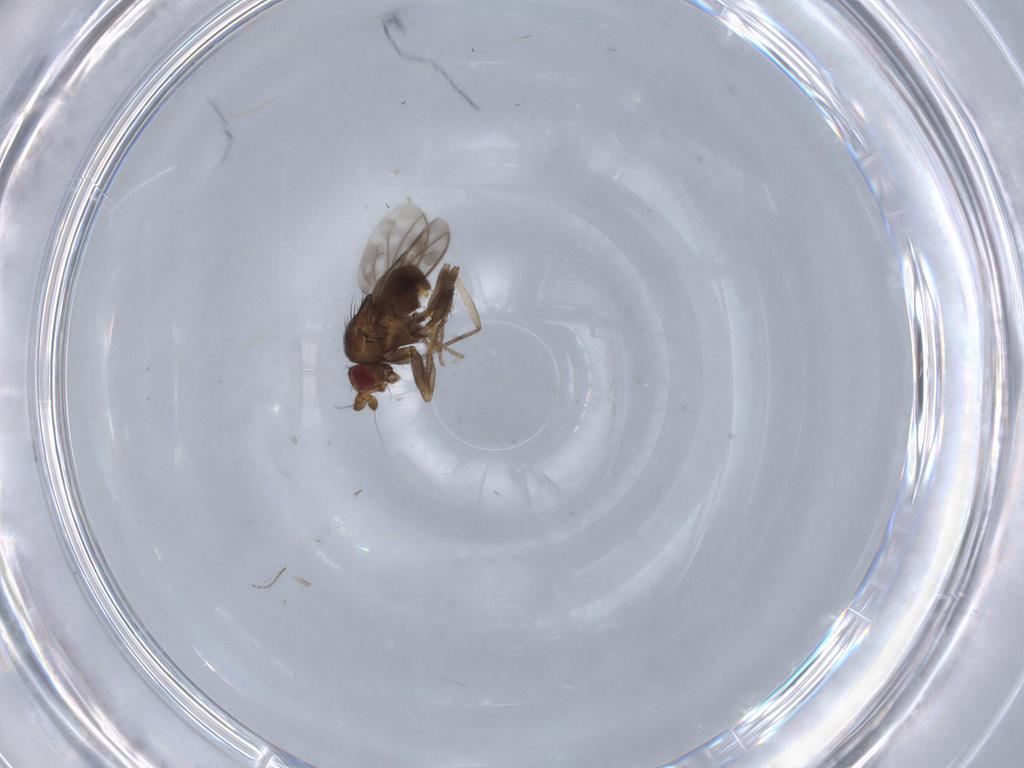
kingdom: Animalia
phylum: Arthropoda
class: Insecta
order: Diptera
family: Sphaeroceridae
